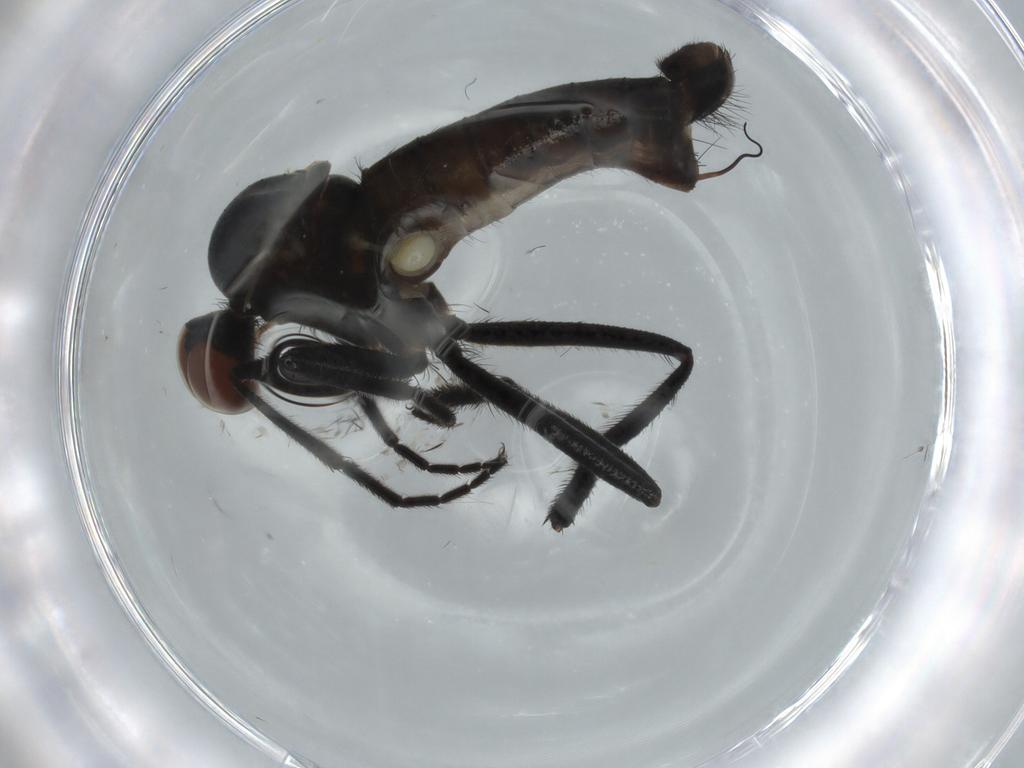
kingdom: Animalia
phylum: Arthropoda
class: Insecta
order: Diptera
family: Empididae
